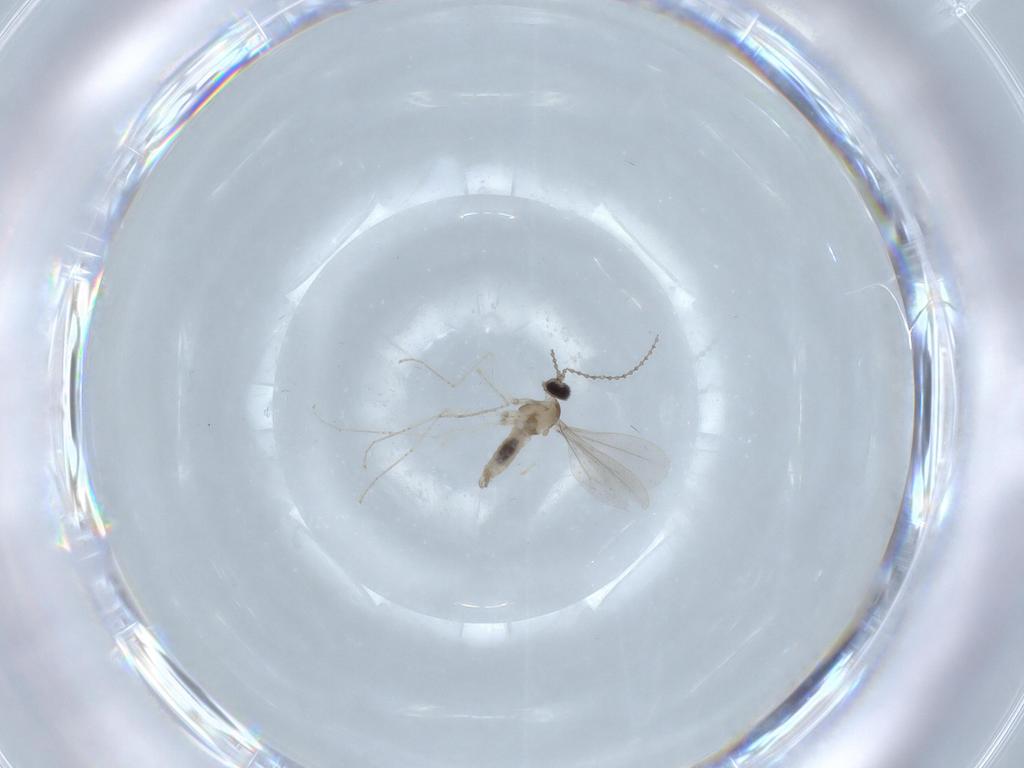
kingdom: Animalia
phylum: Arthropoda
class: Insecta
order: Diptera
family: Cecidomyiidae
